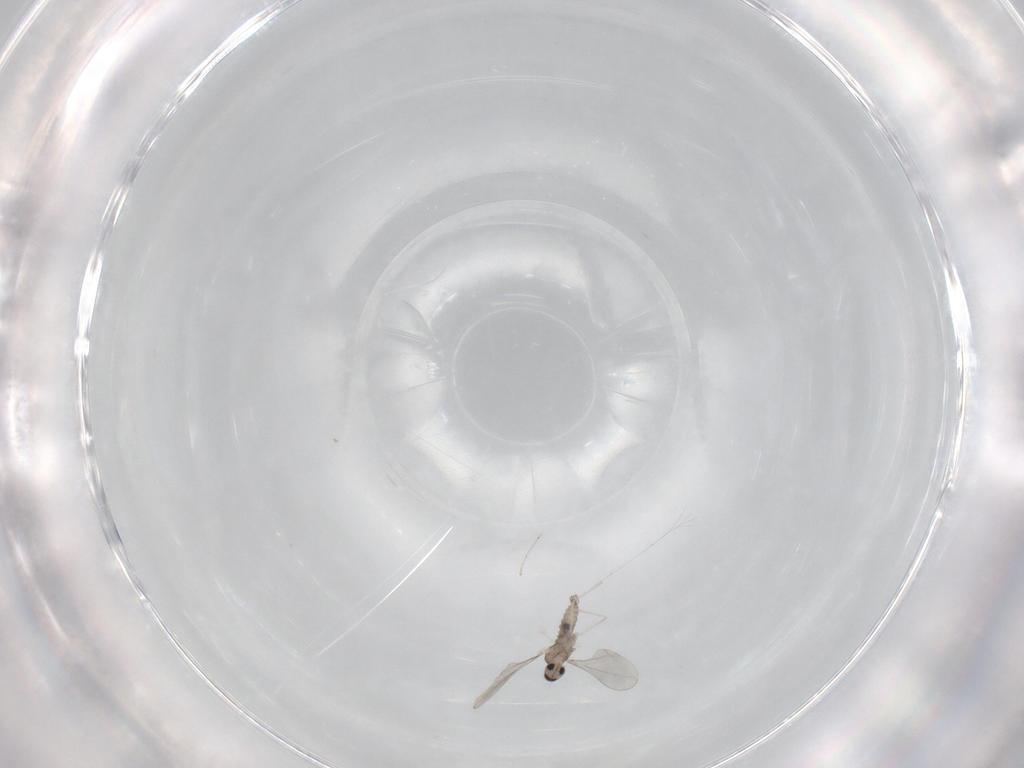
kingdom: Animalia
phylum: Arthropoda
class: Insecta
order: Diptera
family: Cecidomyiidae
